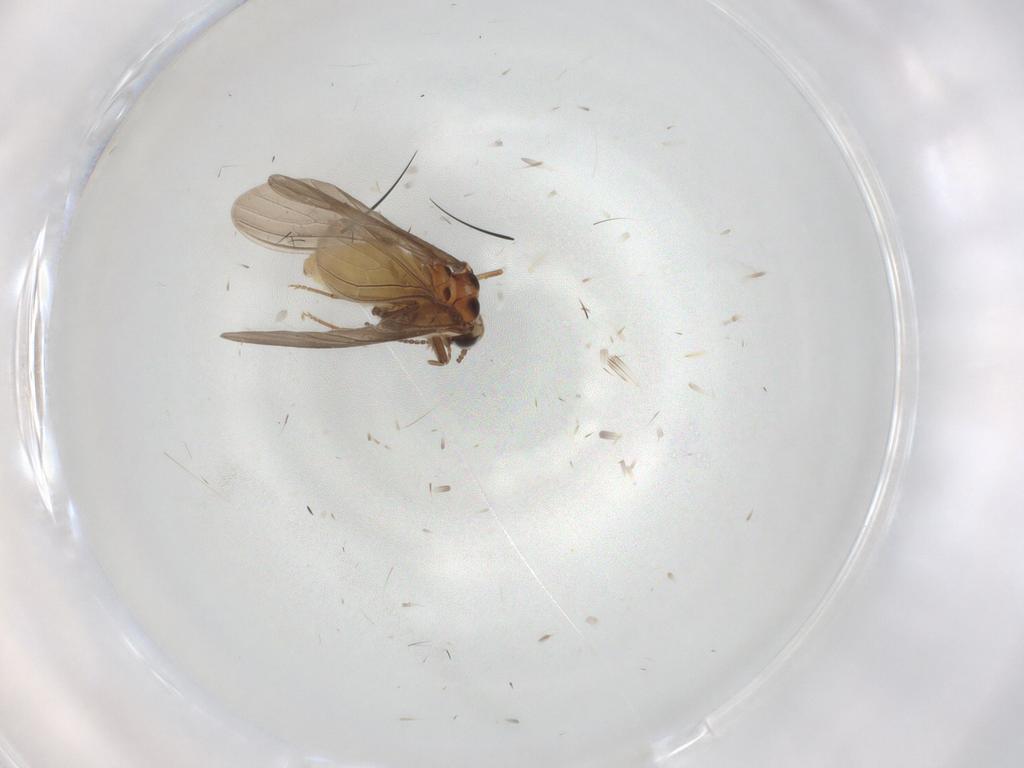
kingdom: Animalia
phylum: Arthropoda
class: Insecta
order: Neuroptera
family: Coniopterygidae
